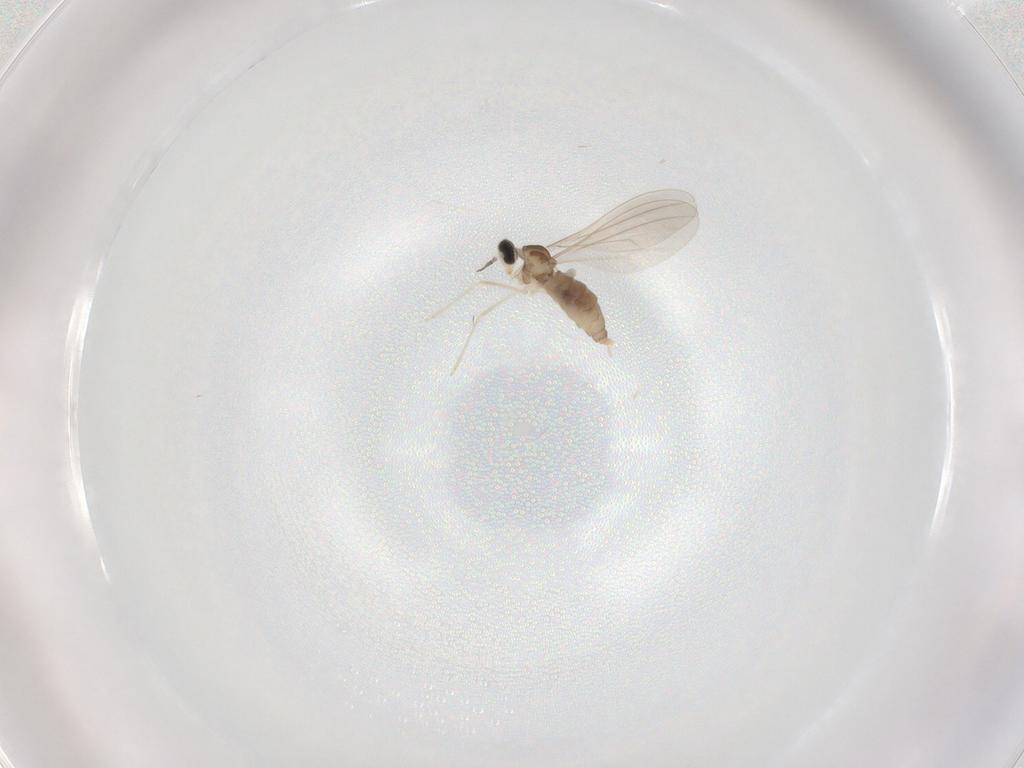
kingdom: Animalia
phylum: Arthropoda
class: Insecta
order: Diptera
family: Cecidomyiidae
